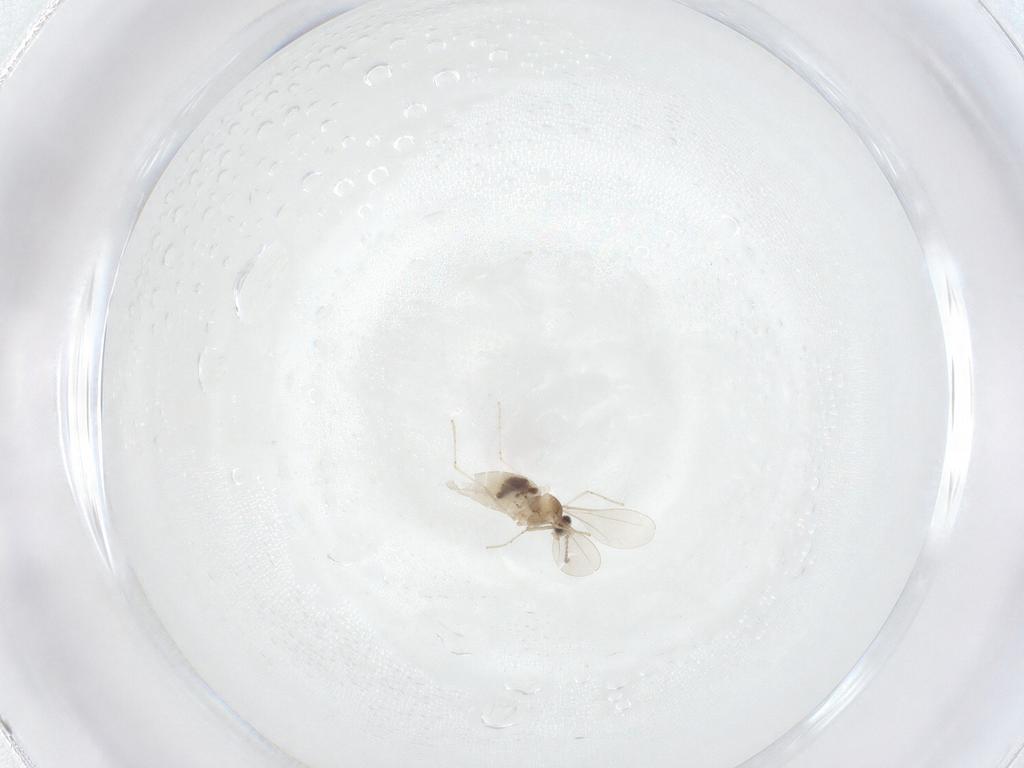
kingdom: Animalia
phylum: Arthropoda
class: Insecta
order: Diptera
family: Cecidomyiidae
